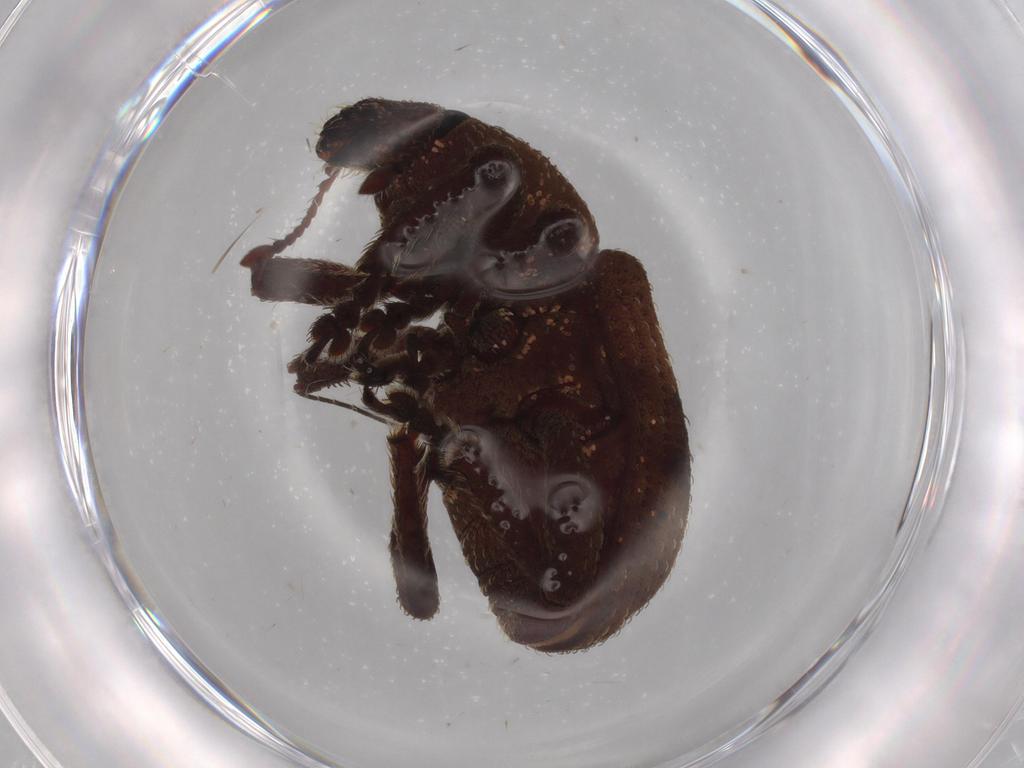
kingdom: Animalia
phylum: Arthropoda
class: Insecta
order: Coleoptera
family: Curculionidae
